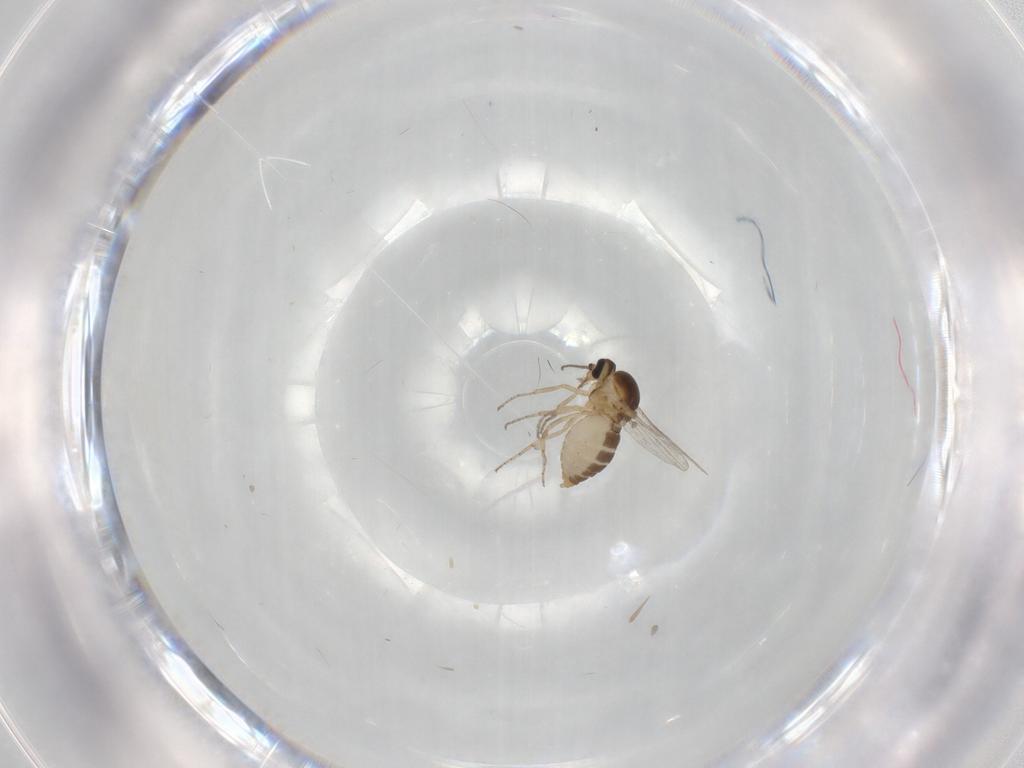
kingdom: Animalia
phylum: Arthropoda
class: Insecta
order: Diptera
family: Ceratopogonidae
